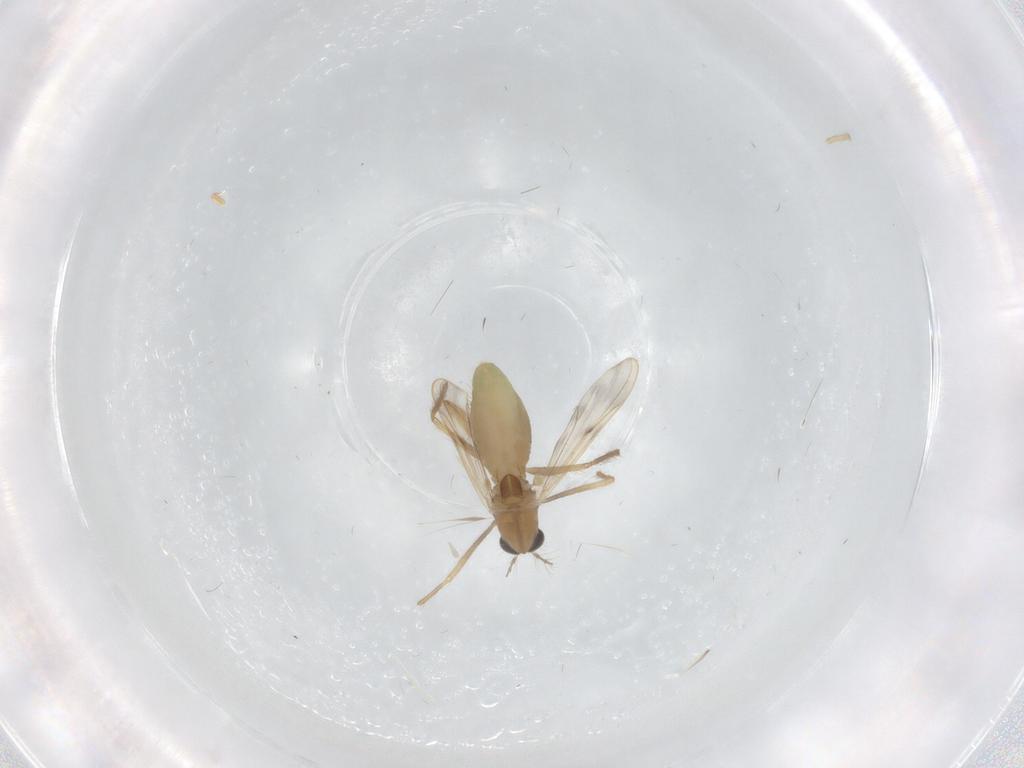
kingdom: Animalia
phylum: Arthropoda
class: Insecta
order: Diptera
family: Chironomidae
